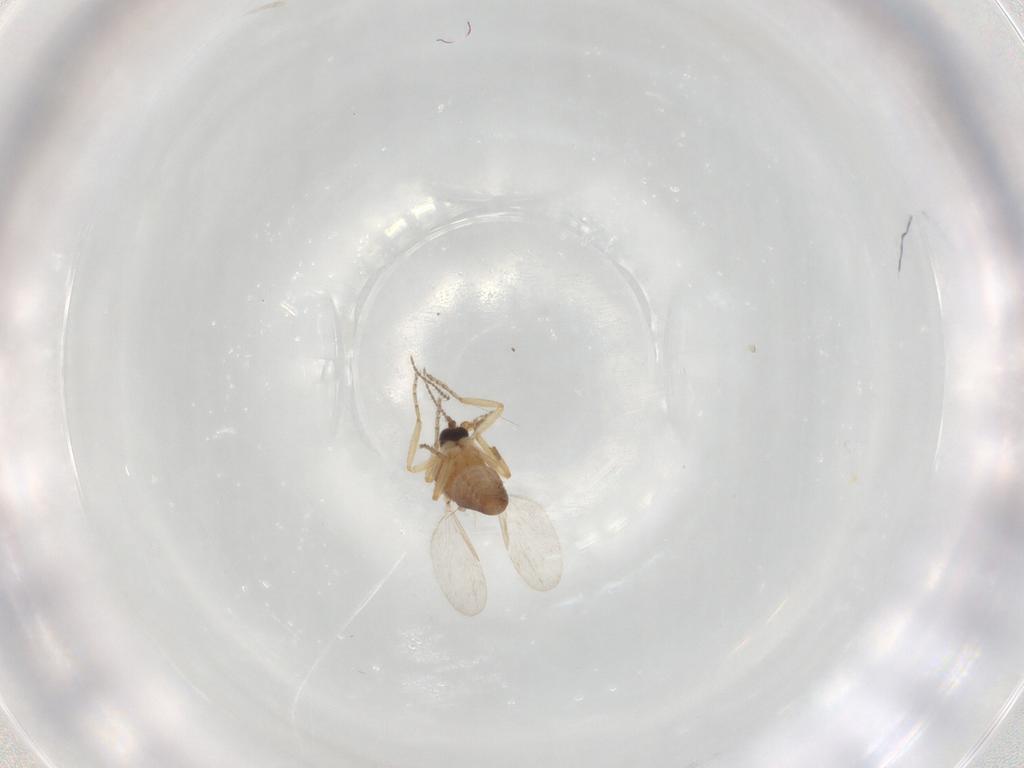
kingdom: Animalia
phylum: Arthropoda
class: Insecta
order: Diptera
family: Ceratopogonidae
